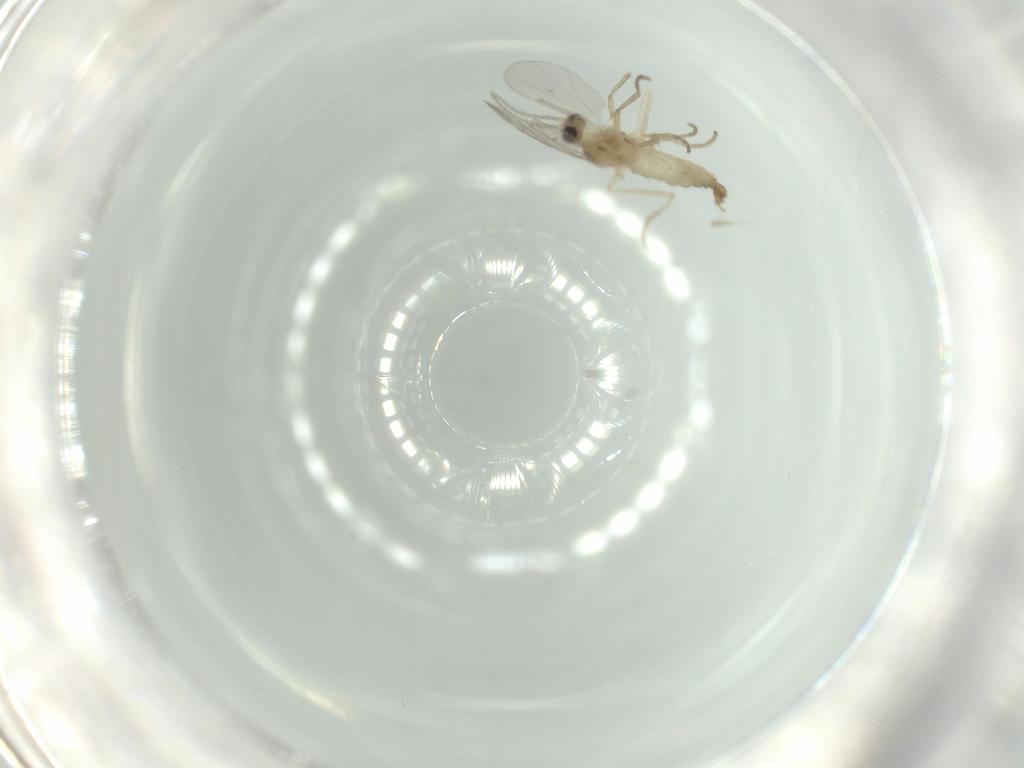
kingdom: Animalia
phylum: Arthropoda
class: Insecta
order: Diptera
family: Cecidomyiidae
